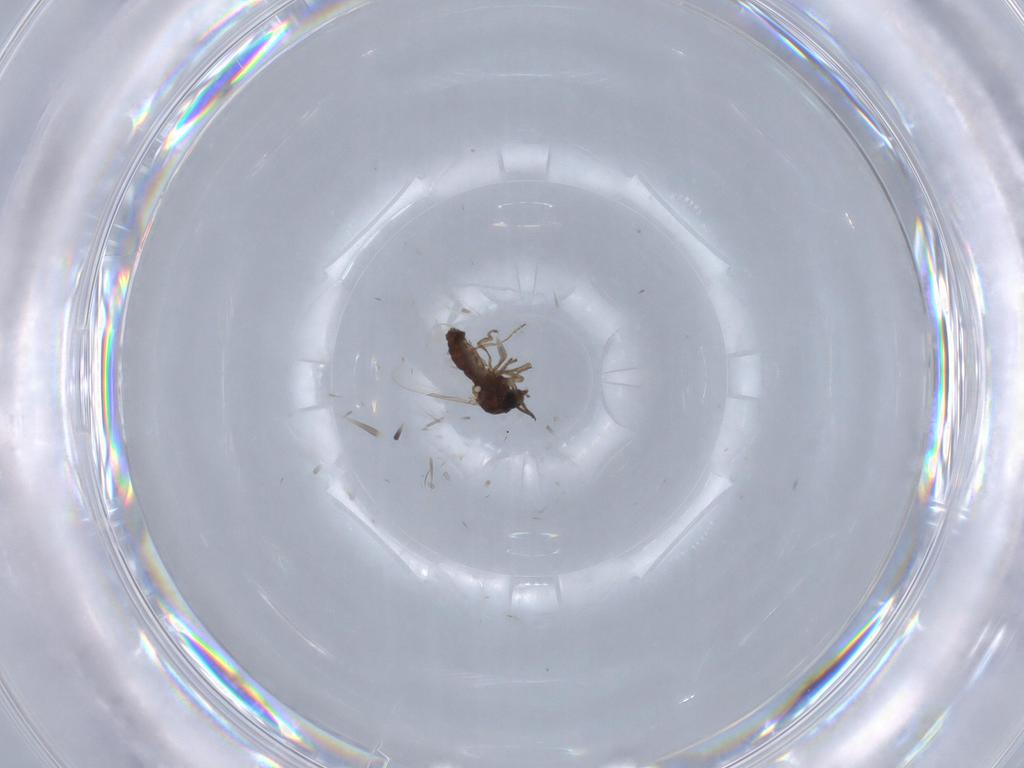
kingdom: Animalia
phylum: Arthropoda
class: Insecta
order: Diptera
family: Ceratopogonidae
